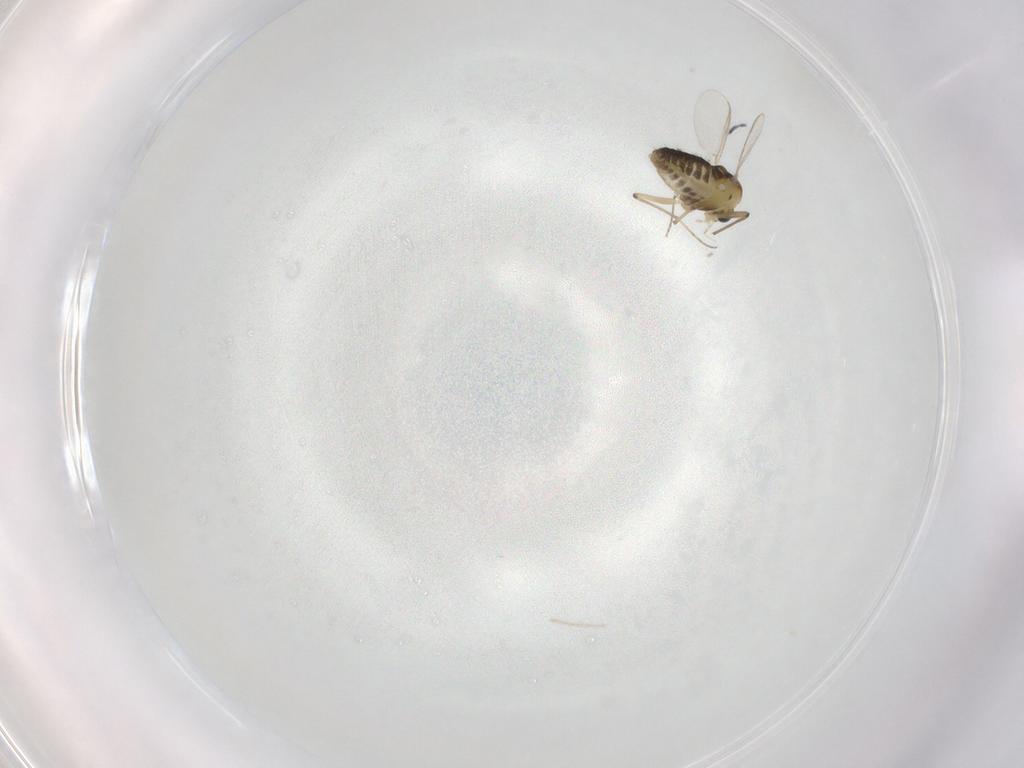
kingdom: Animalia
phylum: Arthropoda
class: Insecta
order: Diptera
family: Chironomidae
